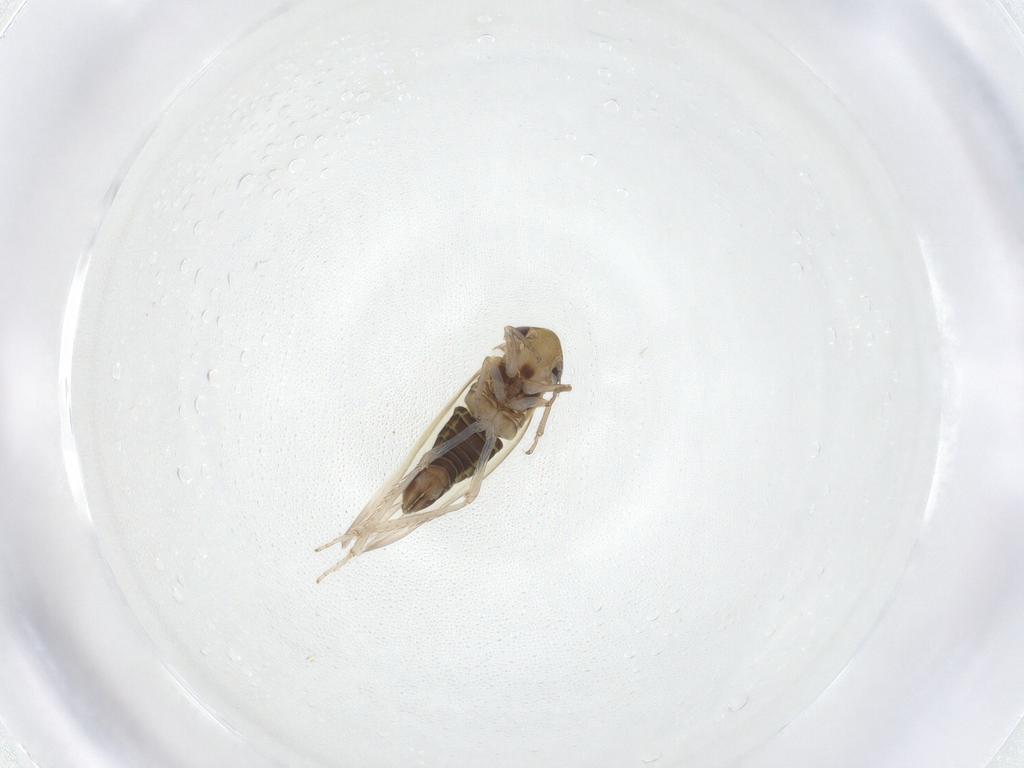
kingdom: Animalia
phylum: Arthropoda
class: Insecta
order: Hemiptera
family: Cicadellidae
